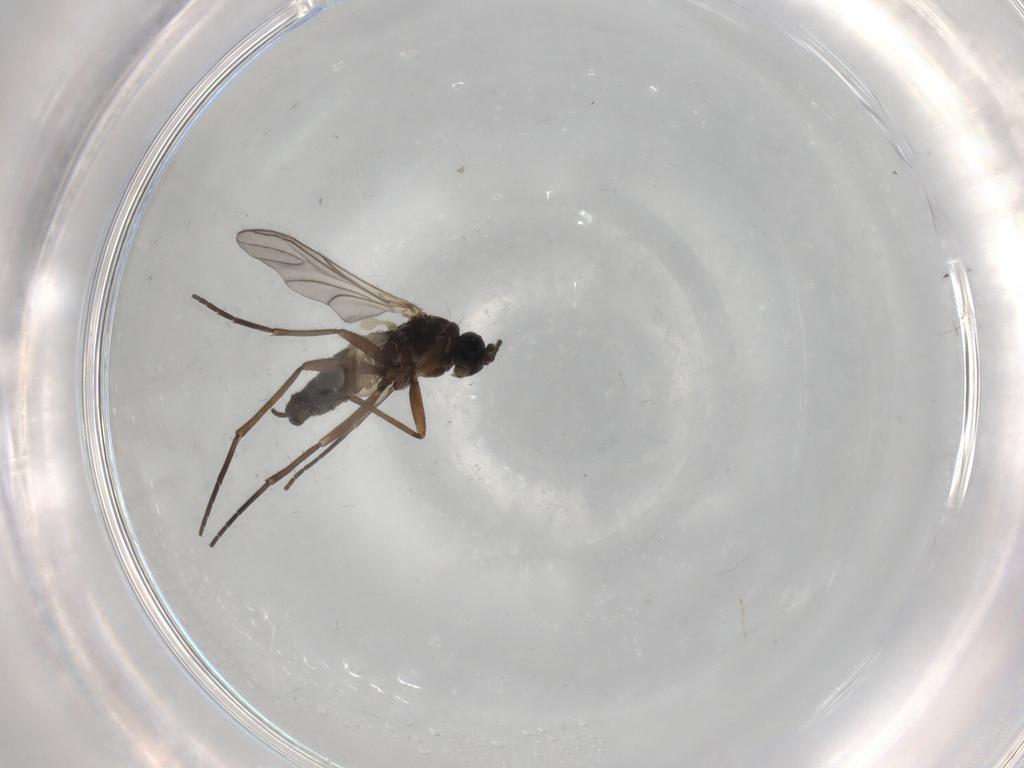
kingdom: Animalia
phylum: Arthropoda
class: Insecta
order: Diptera
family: Sciaridae
